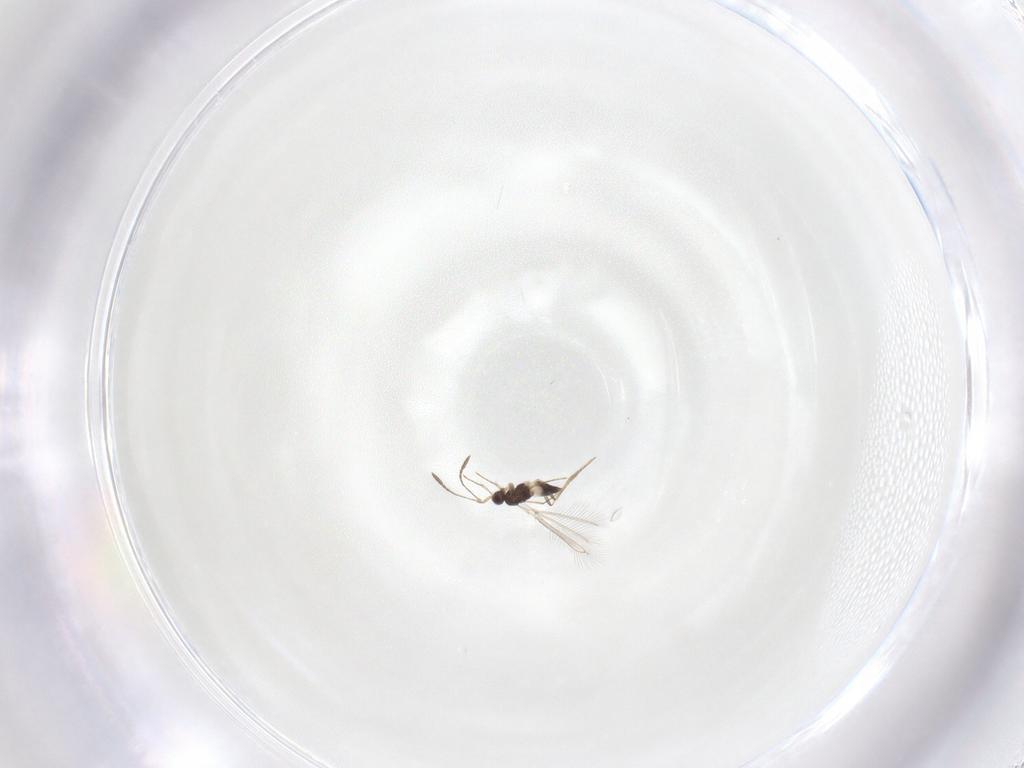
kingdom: Animalia
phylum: Arthropoda
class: Insecta
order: Hymenoptera
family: Mymaridae
